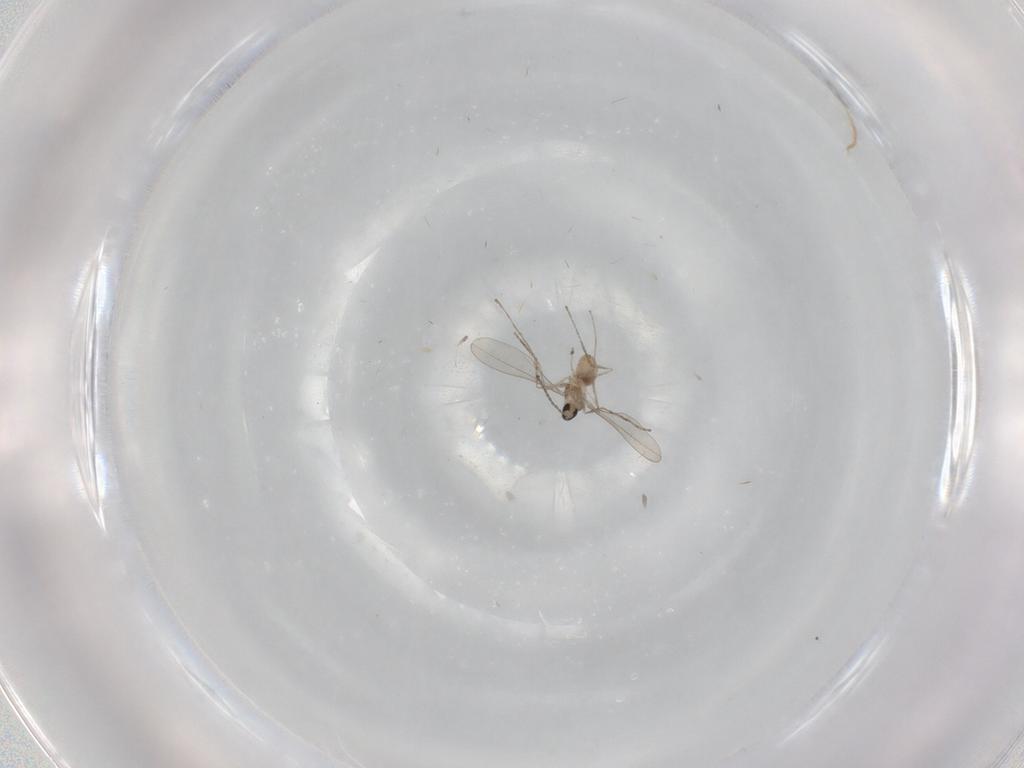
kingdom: Animalia
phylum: Arthropoda
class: Insecta
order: Diptera
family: Cecidomyiidae
